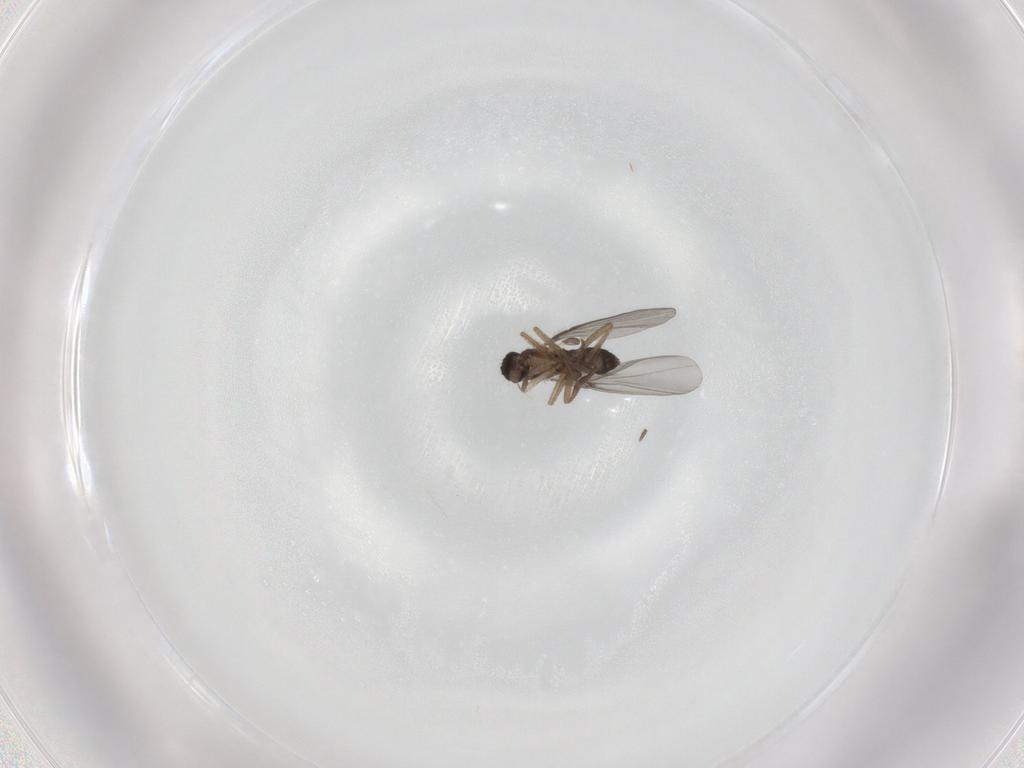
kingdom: Animalia
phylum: Arthropoda
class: Insecta
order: Diptera
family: Phoridae
